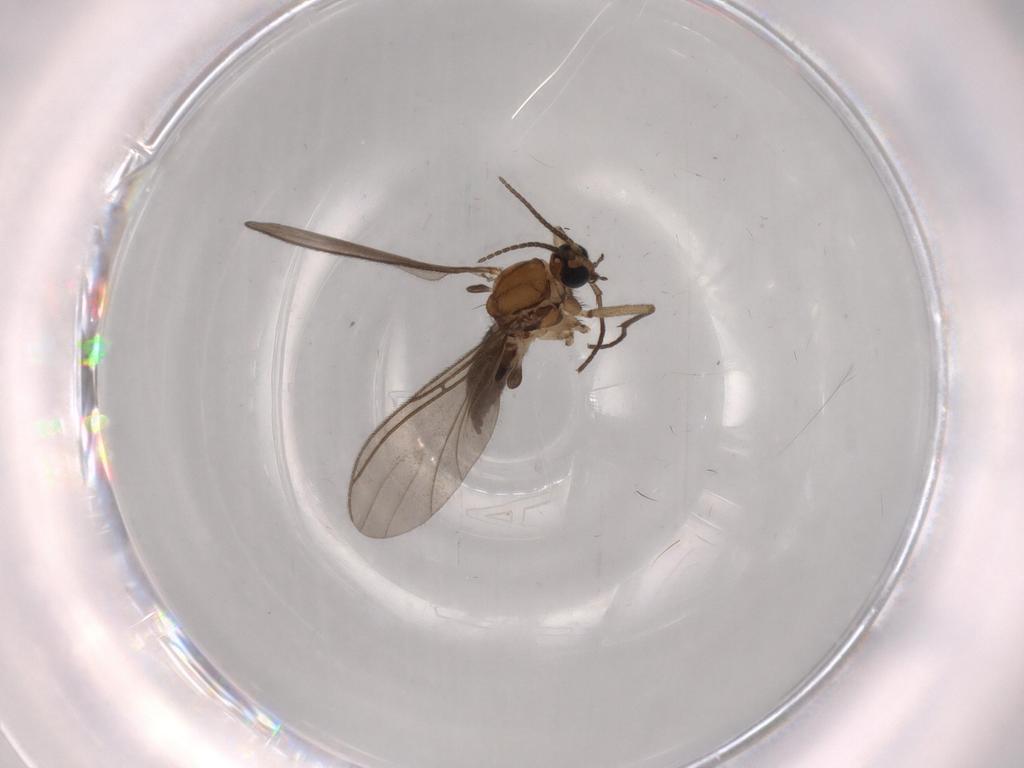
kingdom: Animalia
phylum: Arthropoda
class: Insecta
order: Diptera
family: Sciaridae
